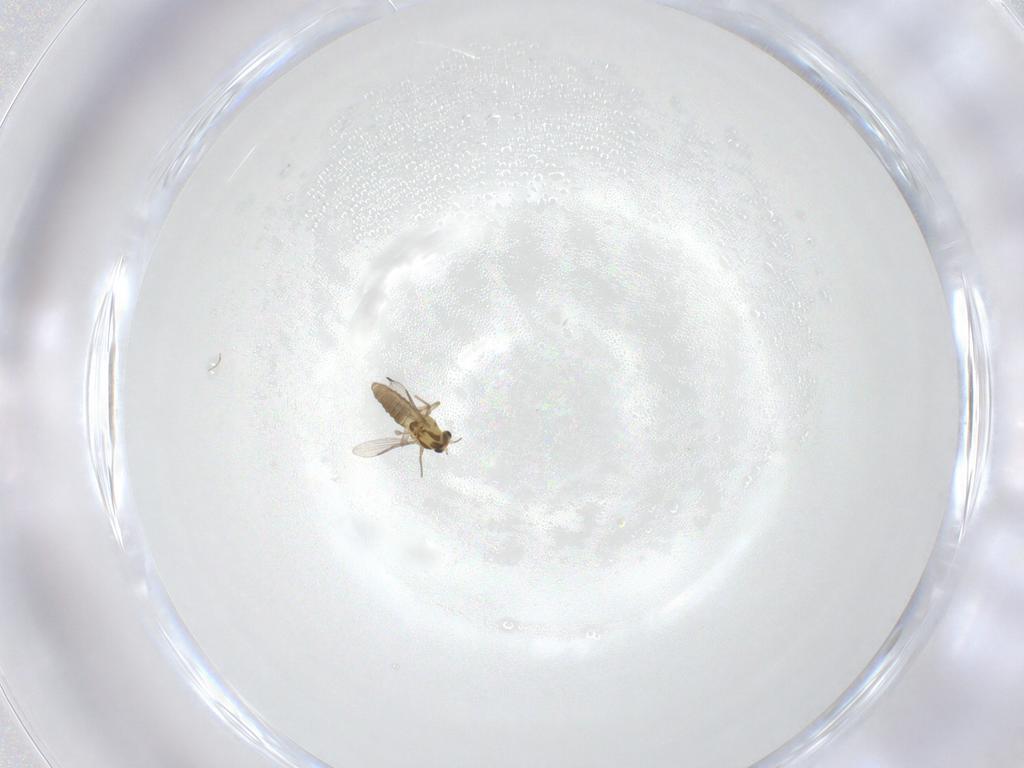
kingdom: Animalia
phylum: Arthropoda
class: Insecta
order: Diptera
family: Chironomidae
